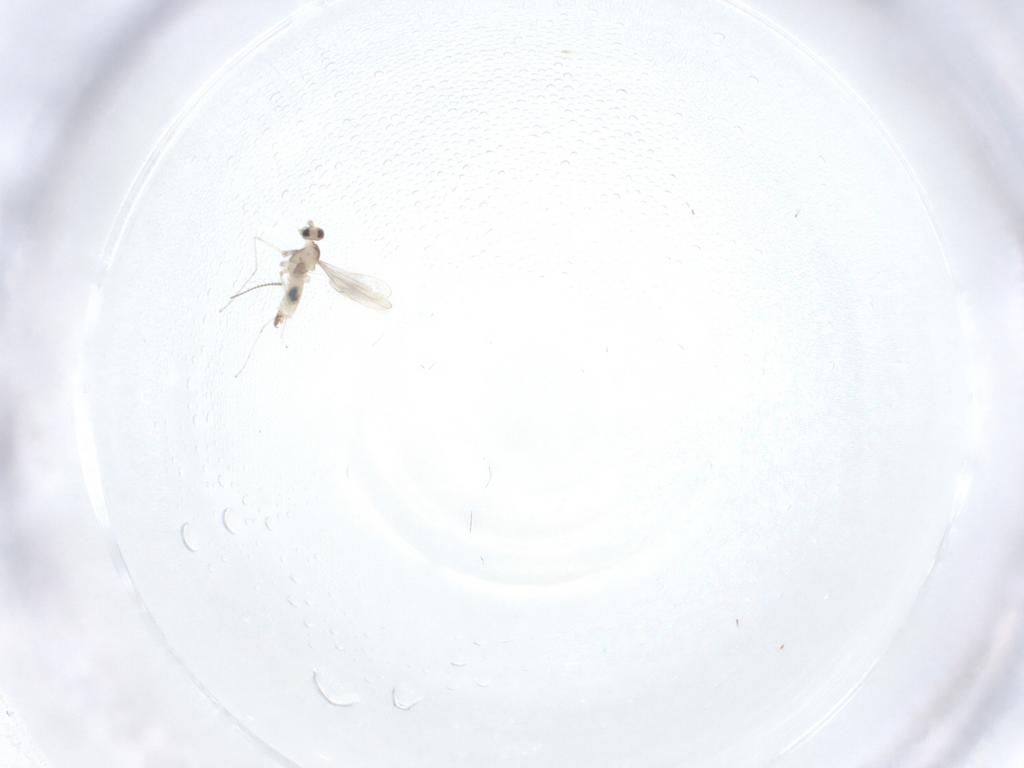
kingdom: Animalia
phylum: Arthropoda
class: Insecta
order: Diptera
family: Cecidomyiidae
